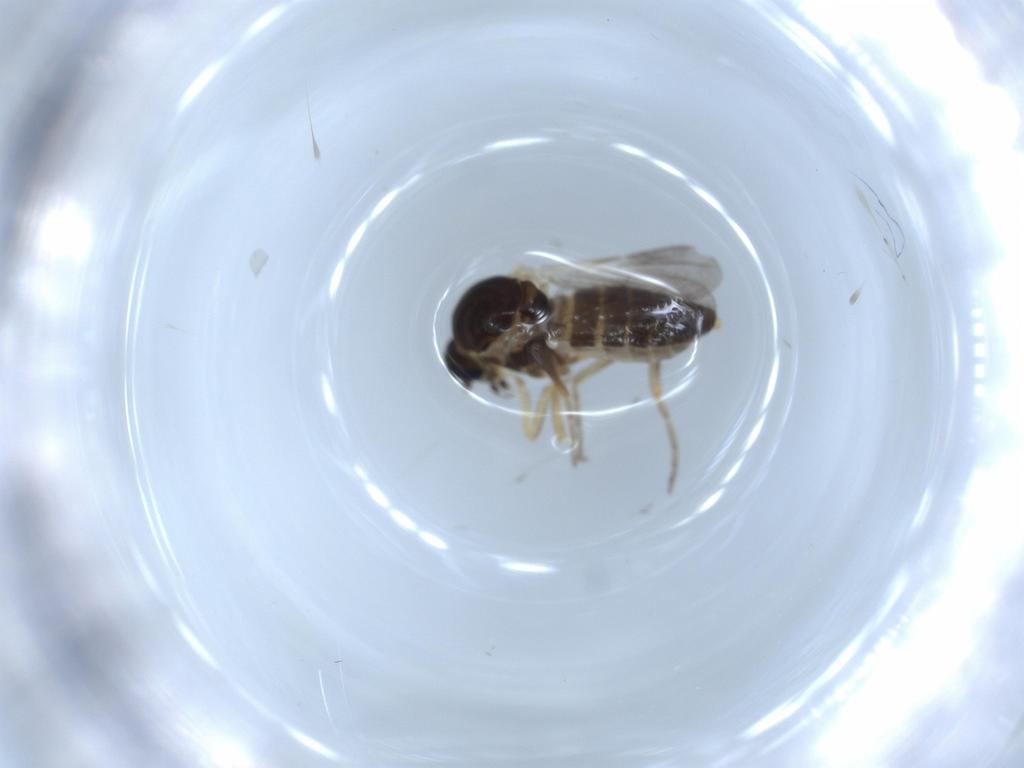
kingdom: Animalia
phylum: Arthropoda
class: Insecta
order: Diptera
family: Ceratopogonidae
